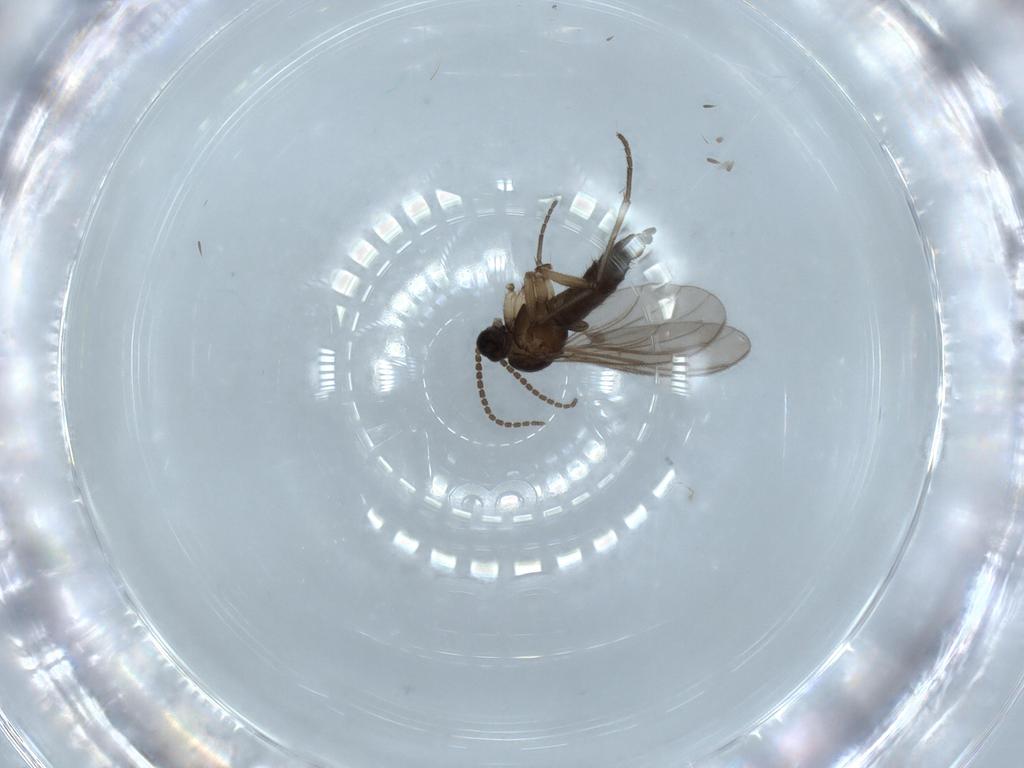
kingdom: Animalia
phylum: Arthropoda
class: Insecta
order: Diptera
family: Sciaridae
